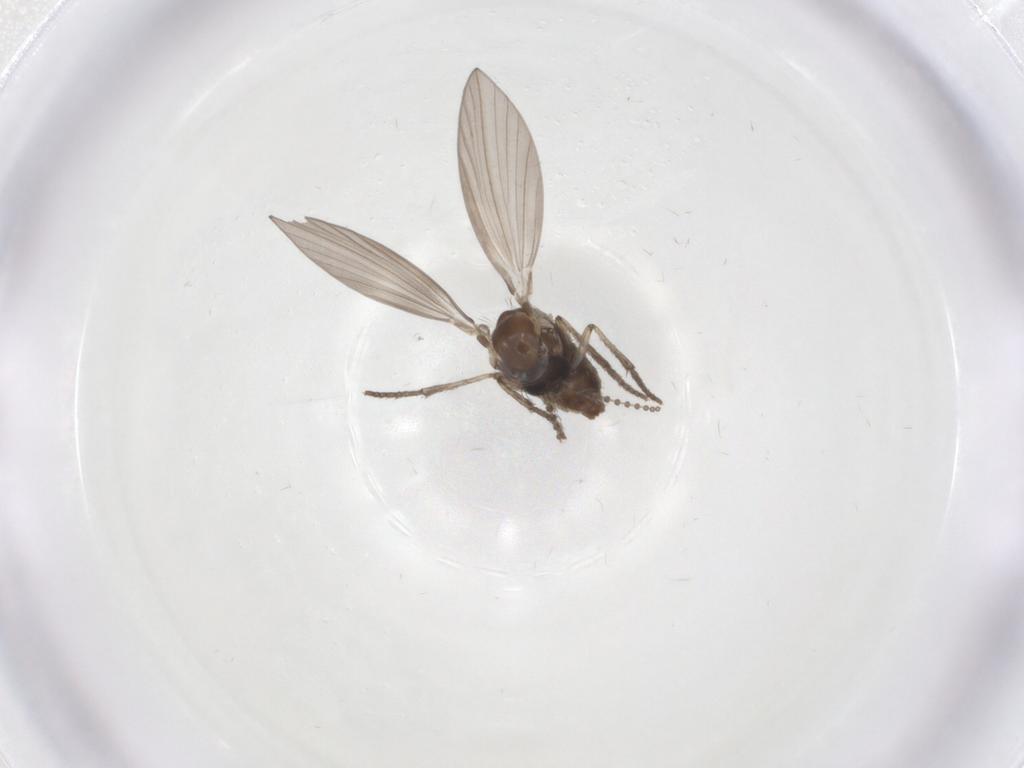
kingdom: Animalia
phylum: Arthropoda
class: Insecta
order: Diptera
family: Psychodidae
